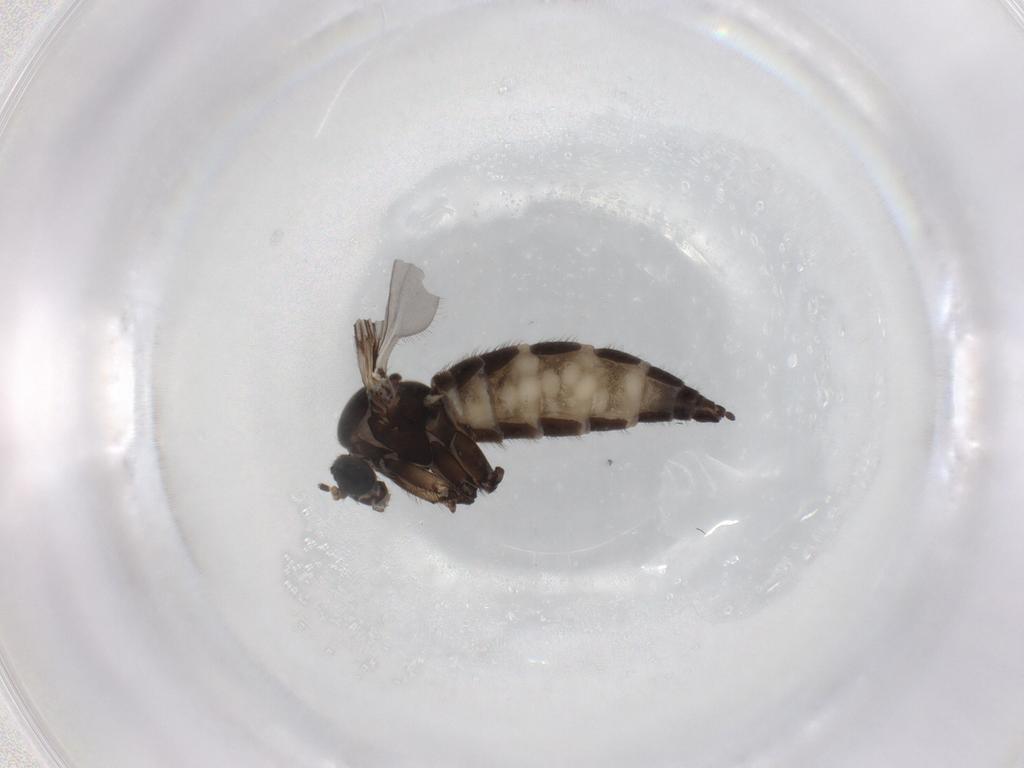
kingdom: Animalia
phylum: Arthropoda
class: Insecta
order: Diptera
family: Sciaridae
